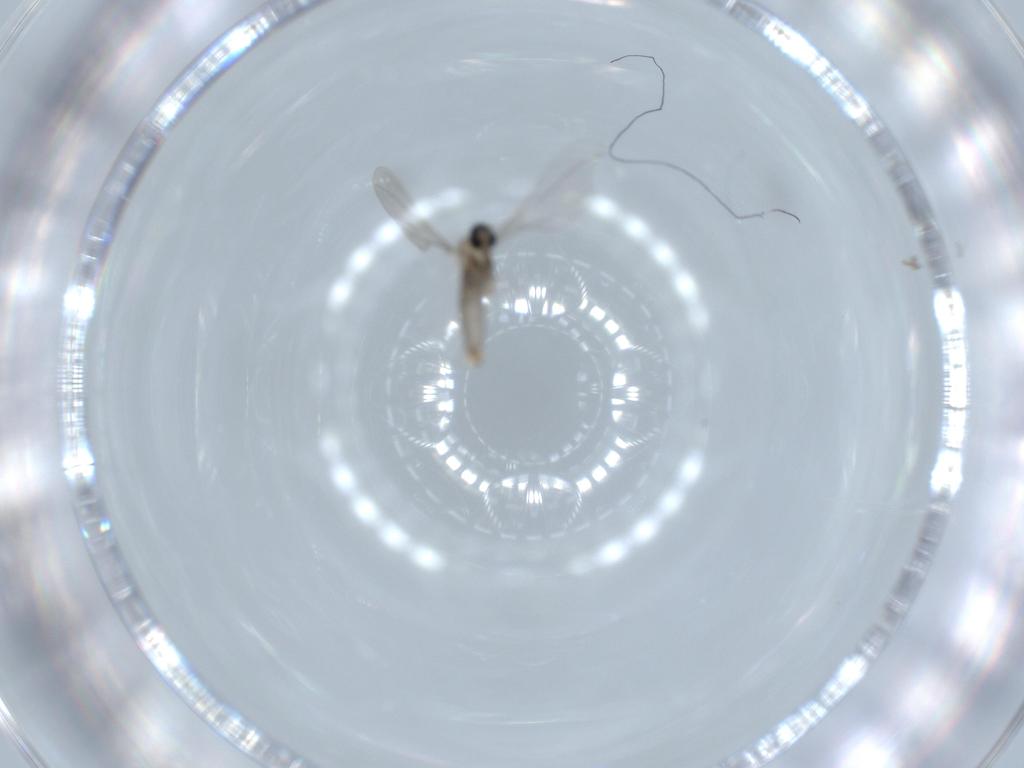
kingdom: Animalia
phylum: Arthropoda
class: Insecta
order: Diptera
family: Cecidomyiidae
